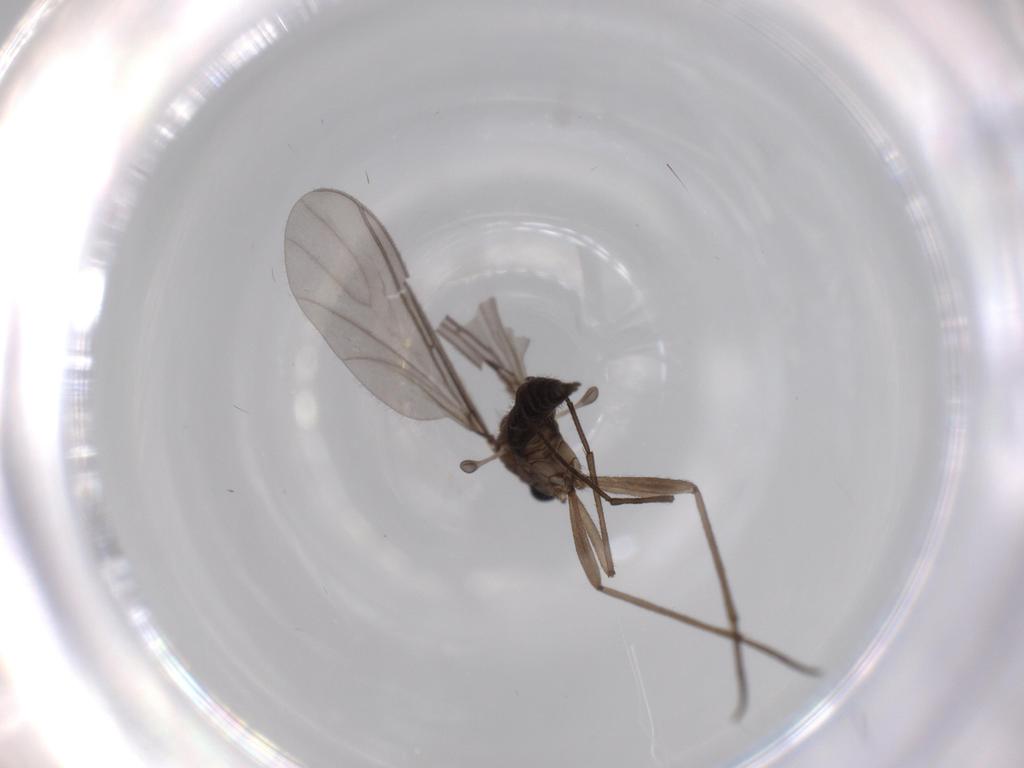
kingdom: Animalia
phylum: Arthropoda
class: Insecta
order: Diptera
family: Sciaridae
